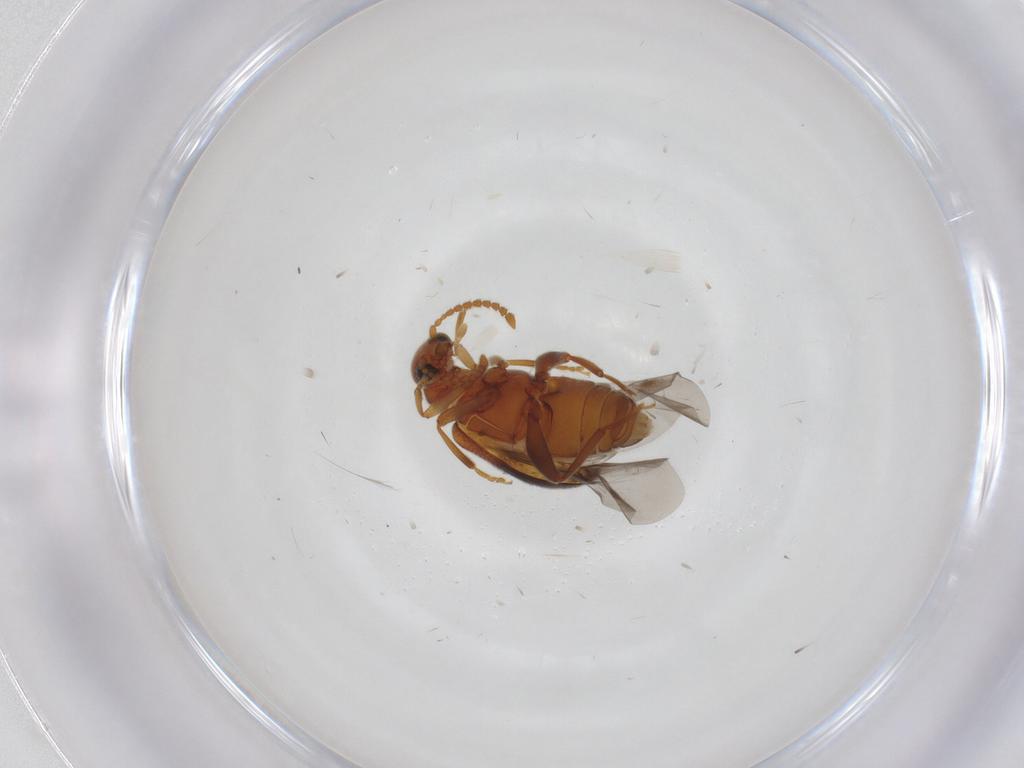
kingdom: Animalia
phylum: Arthropoda
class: Insecta
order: Coleoptera
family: Aderidae
